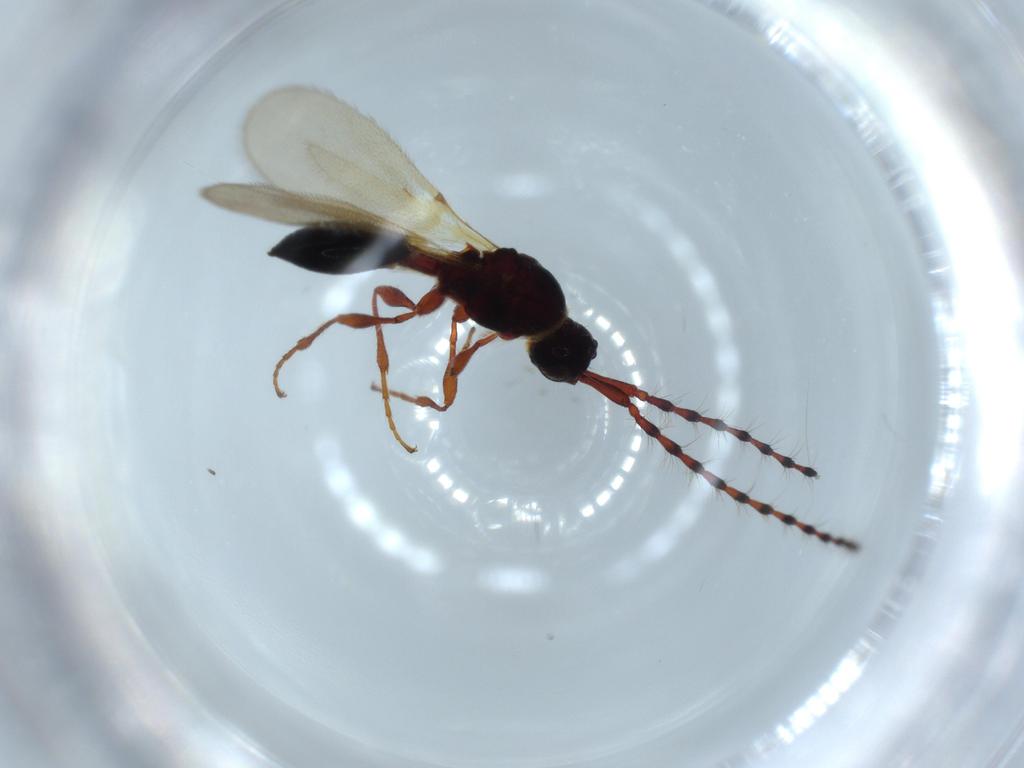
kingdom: Animalia
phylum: Arthropoda
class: Insecta
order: Hymenoptera
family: Diapriidae
